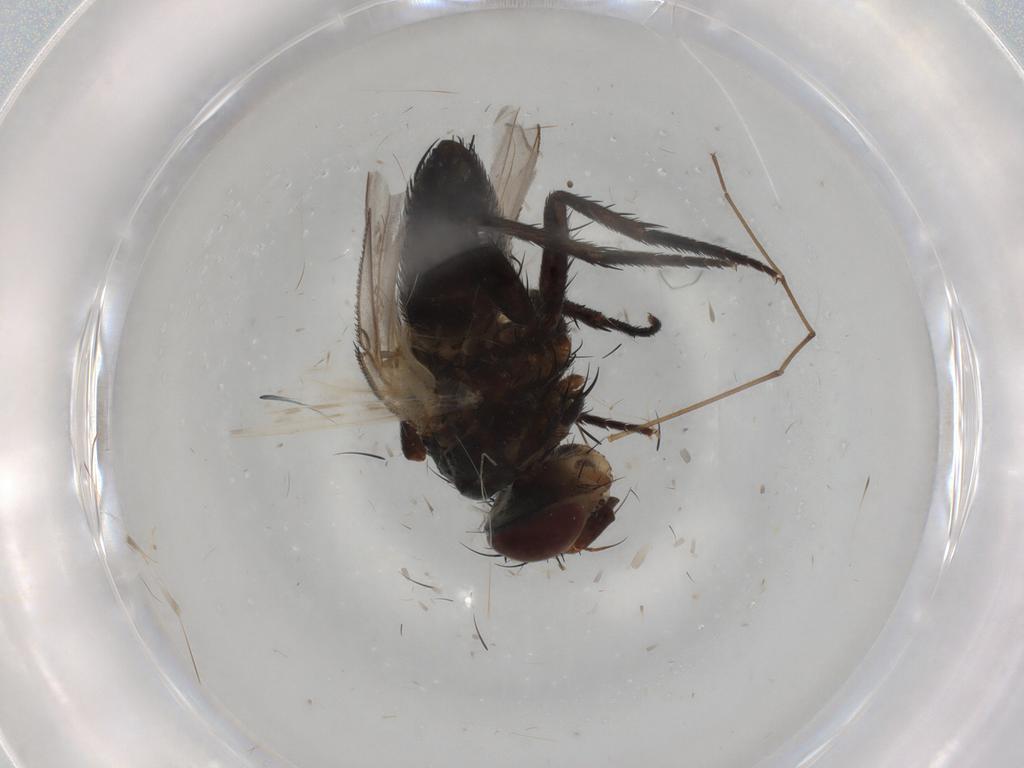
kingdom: Animalia
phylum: Arthropoda
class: Insecta
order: Diptera
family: Tachinidae
